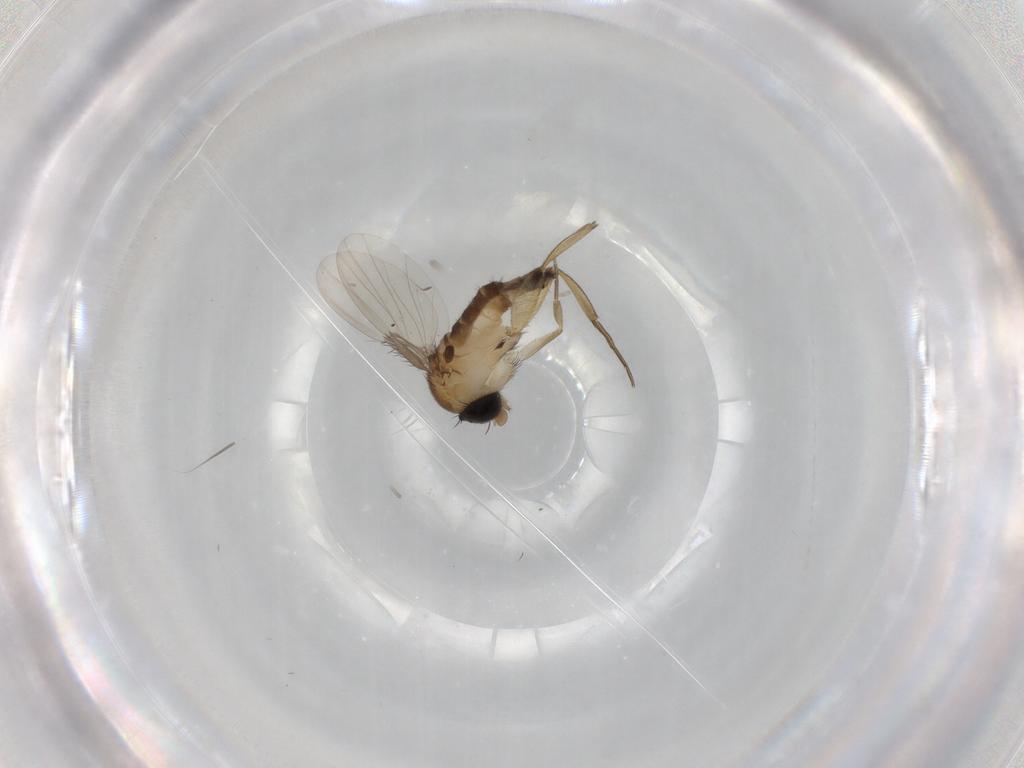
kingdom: Animalia
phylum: Arthropoda
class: Insecta
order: Diptera
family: Phoridae
